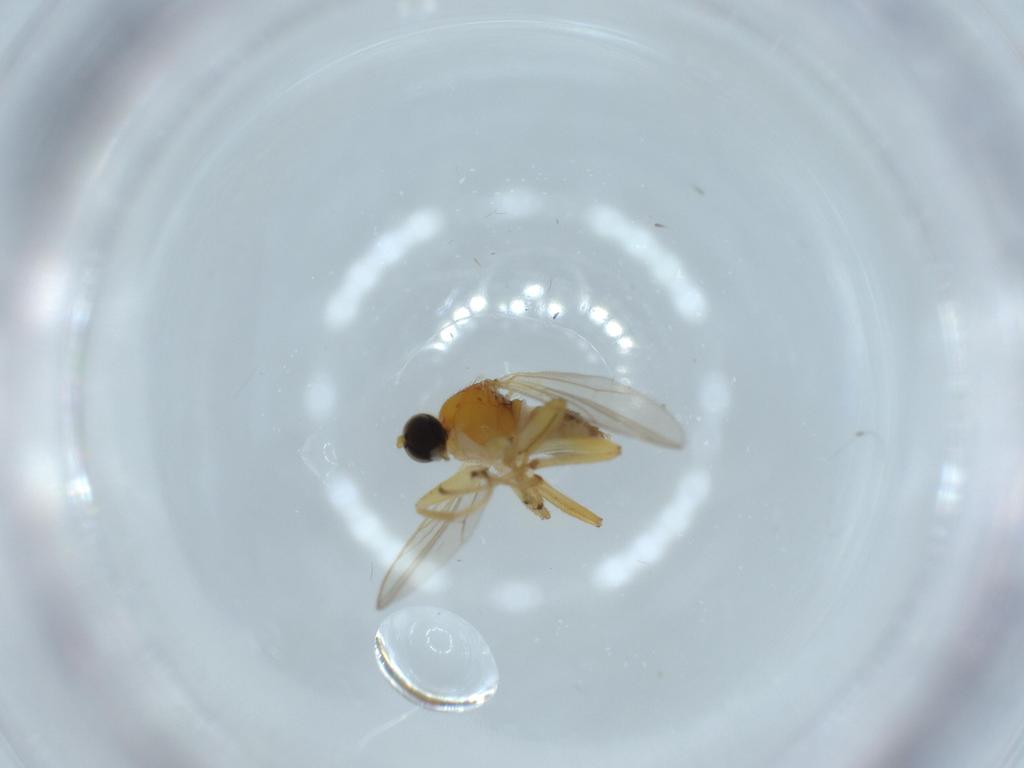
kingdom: Animalia
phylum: Arthropoda
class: Insecta
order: Diptera
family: Hybotidae
